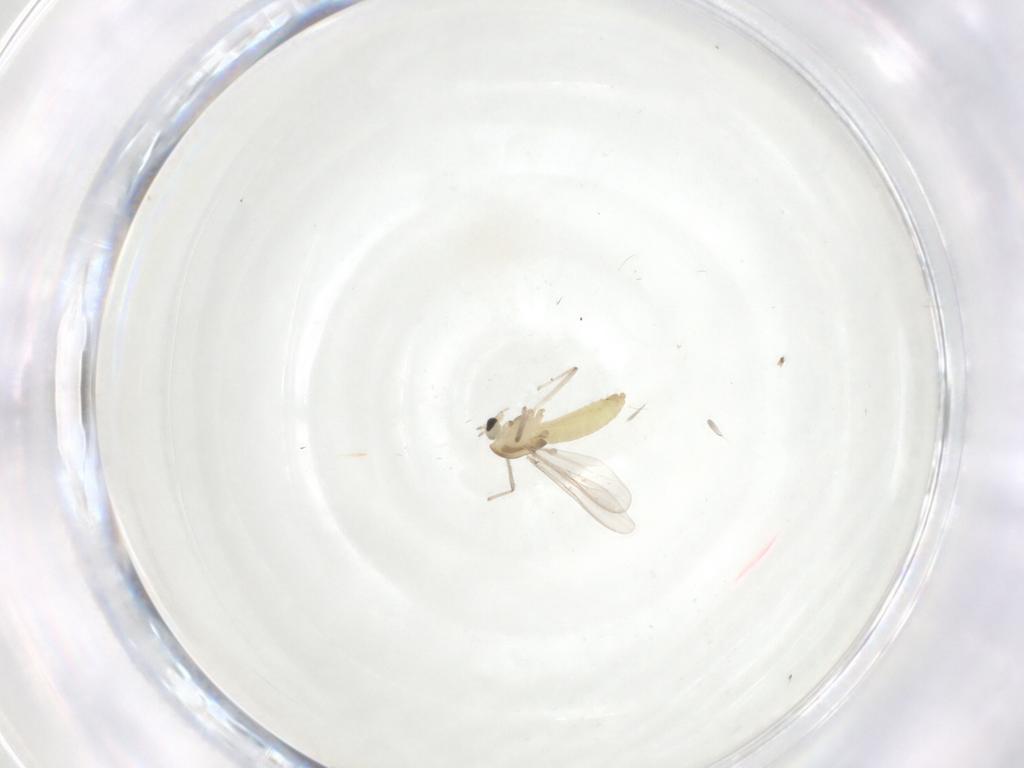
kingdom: Animalia
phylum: Arthropoda
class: Insecta
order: Diptera
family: Chironomidae
